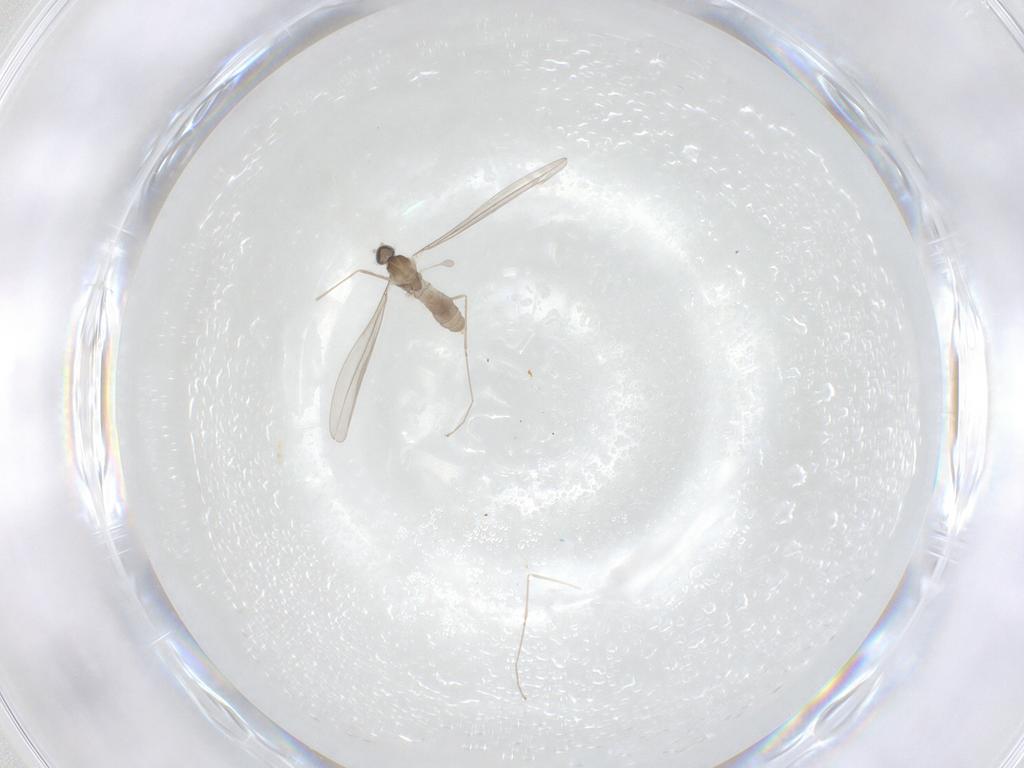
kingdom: Animalia
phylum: Arthropoda
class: Insecta
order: Diptera
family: Cecidomyiidae
